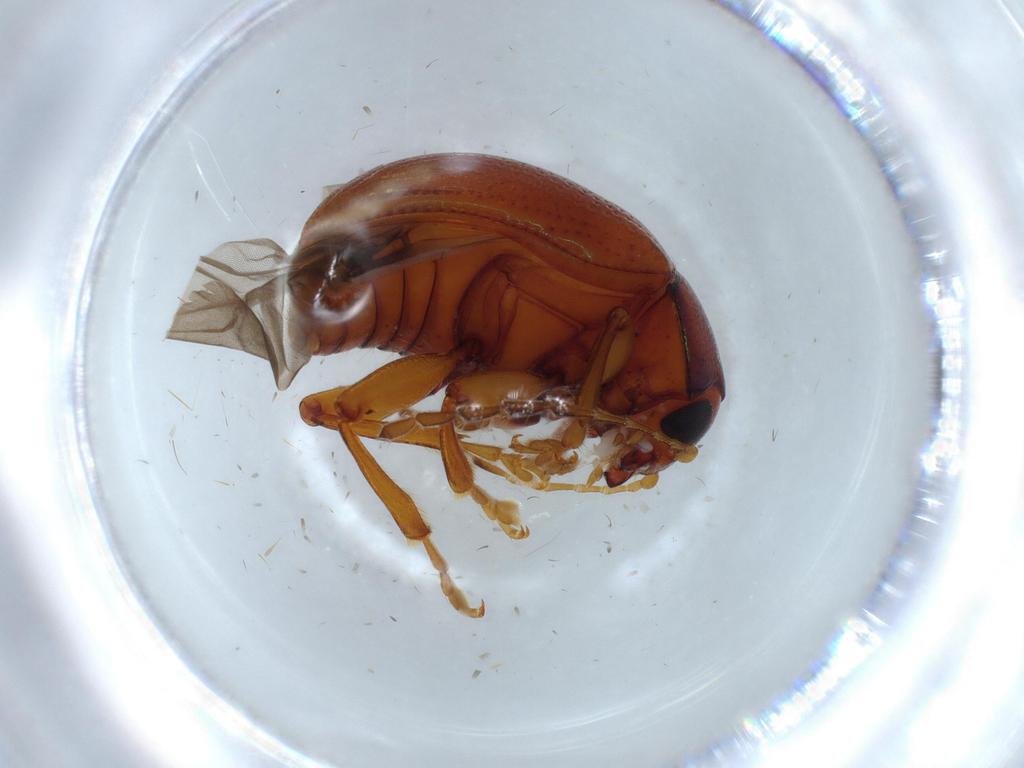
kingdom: Animalia
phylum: Arthropoda
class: Insecta
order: Coleoptera
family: Chrysomelidae
